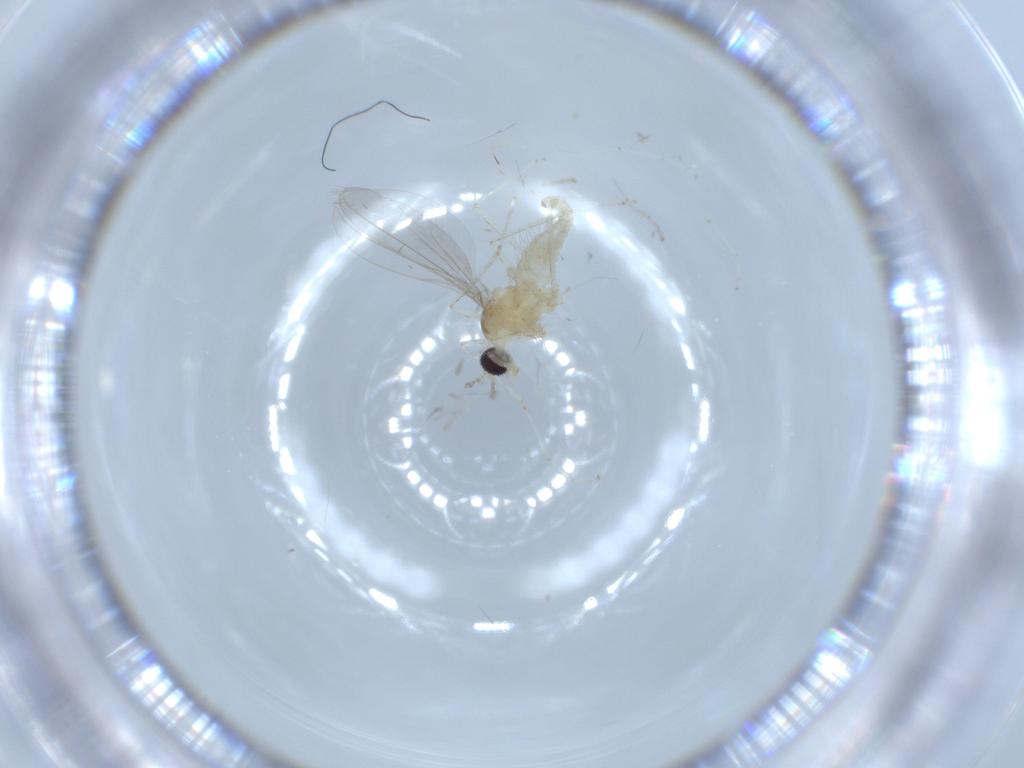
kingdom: Animalia
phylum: Arthropoda
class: Insecta
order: Diptera
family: Cecidomyiidae
